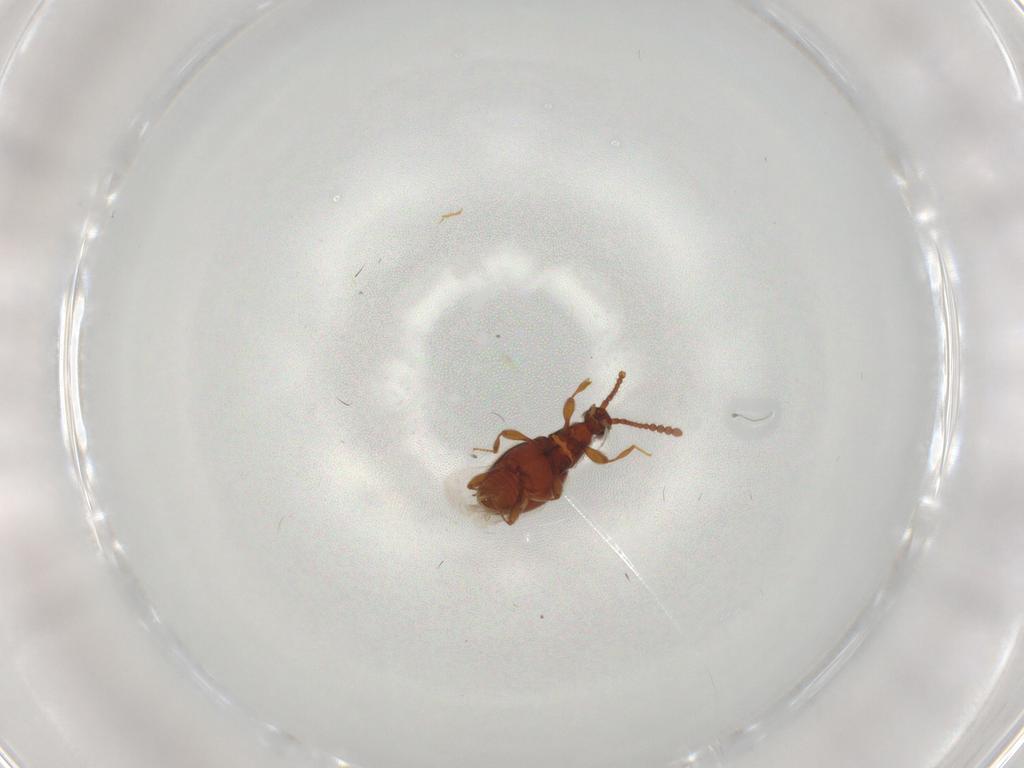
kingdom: Animalia
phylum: Arthropoda
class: Insecta
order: Coleoptera
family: Staphylinidae
